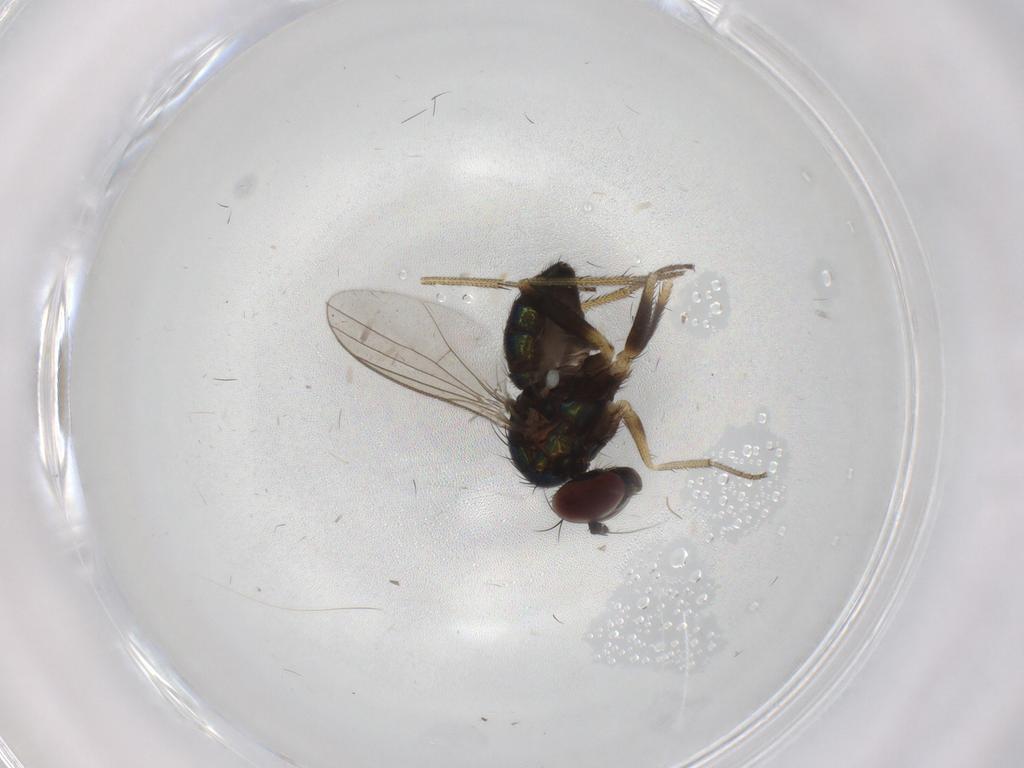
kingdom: Animalia
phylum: Arthropoda
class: Insecta
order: Diptera
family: Dolichopodidae
